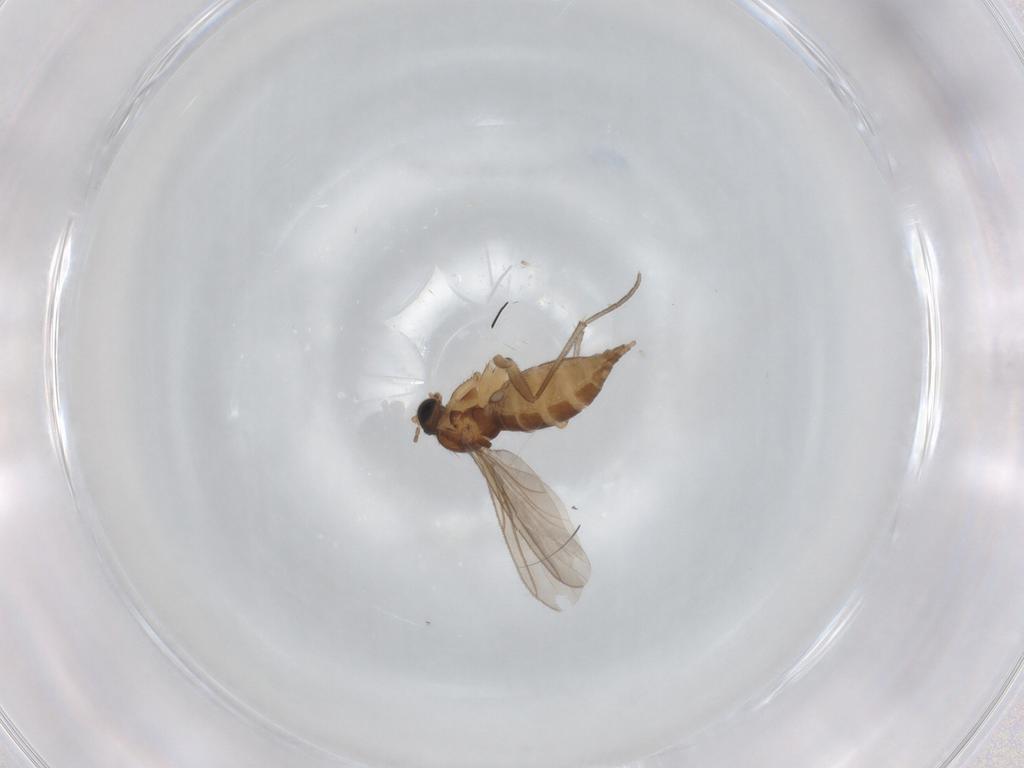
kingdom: Animalia
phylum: Arthropoda
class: Insecta
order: Diptera
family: Sciaridae
